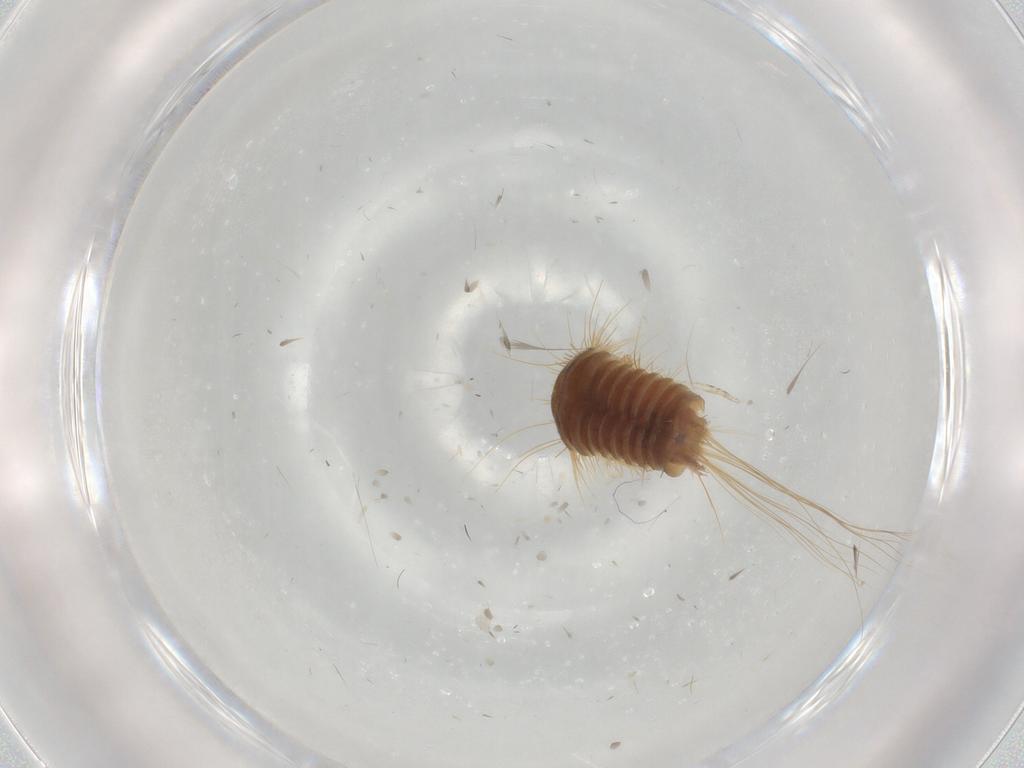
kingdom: Animalia
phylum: Arthropoda
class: Insecta
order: Coleoptera
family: Dermestidae
